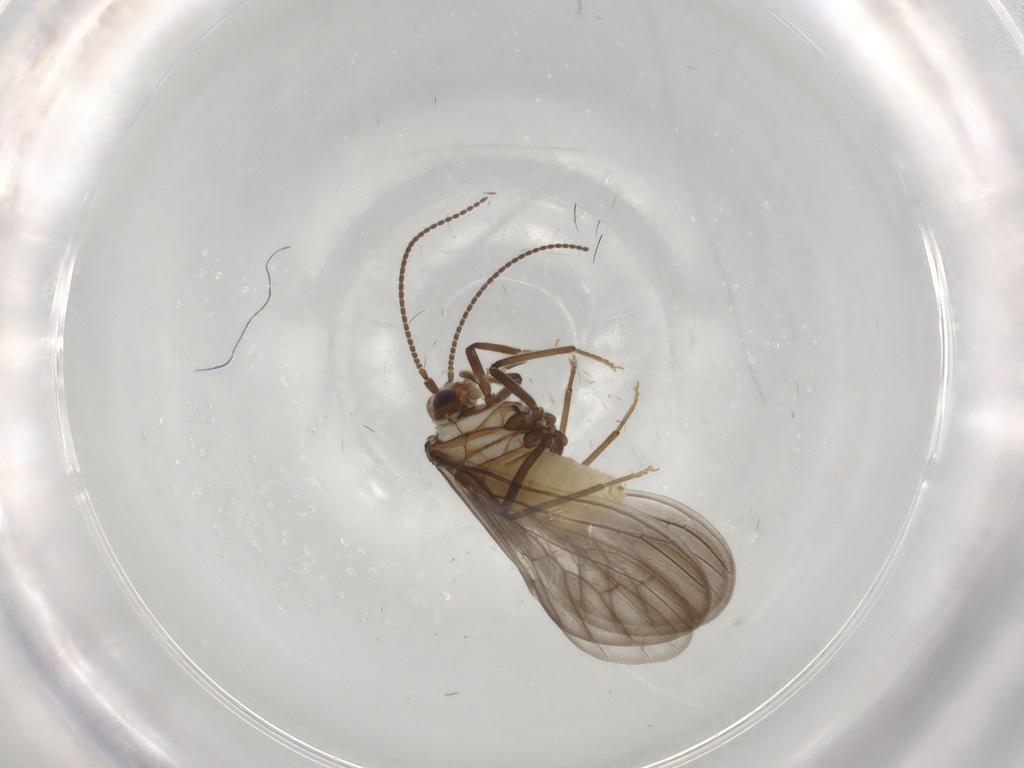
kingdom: Animalia
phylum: Arthropoda
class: Insecta
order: Neuroptera
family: Coniopterygidae
